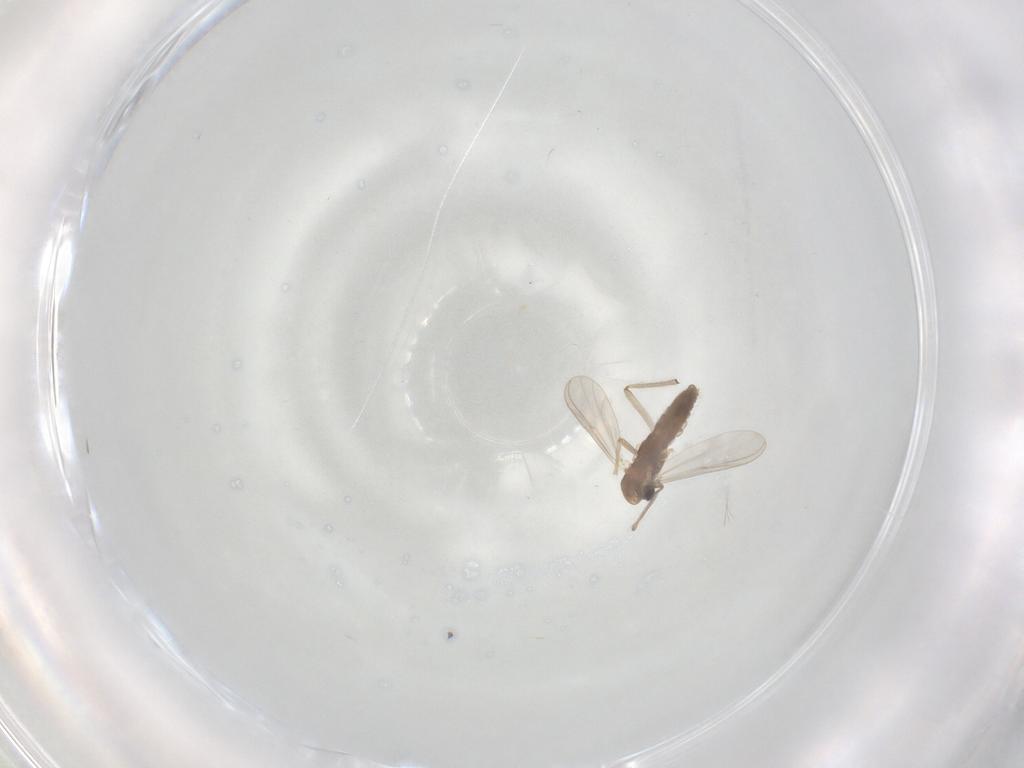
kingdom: Animalia
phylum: Arthropoda
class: Insecta
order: Diptera
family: Chironomidae
